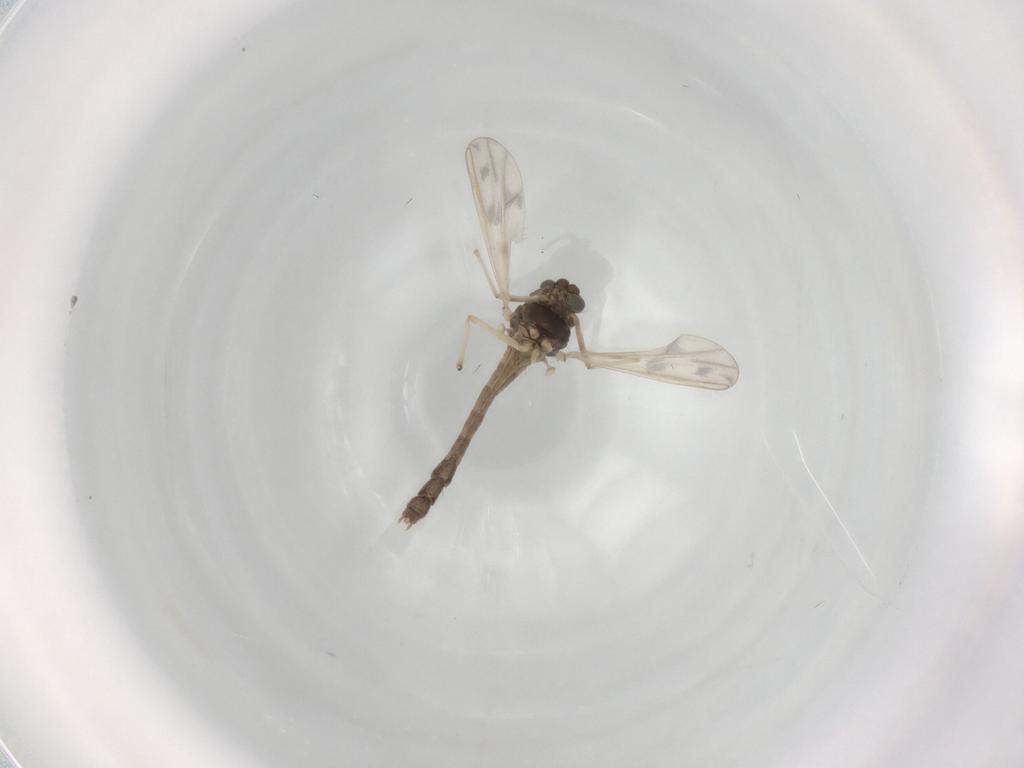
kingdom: Animalia
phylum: Arthropoda
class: Insecta
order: Diptera
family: Chironomidae
